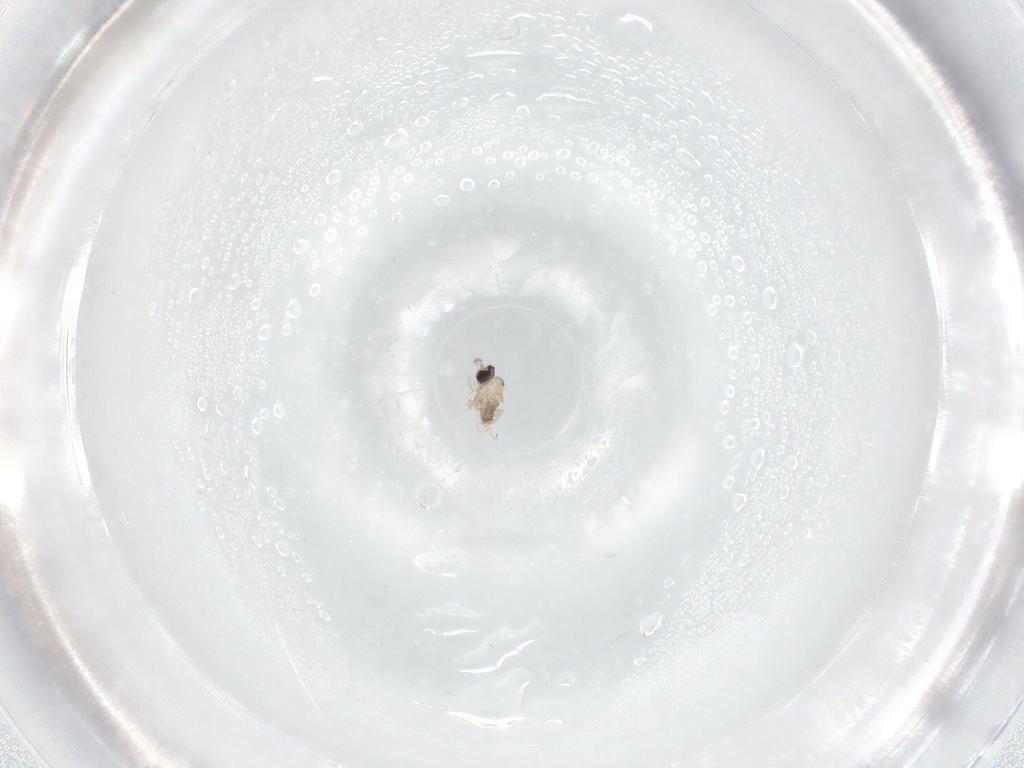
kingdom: Animalia
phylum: Arthropoda
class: Insecta
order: Diptera
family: Cecidomyiidae
